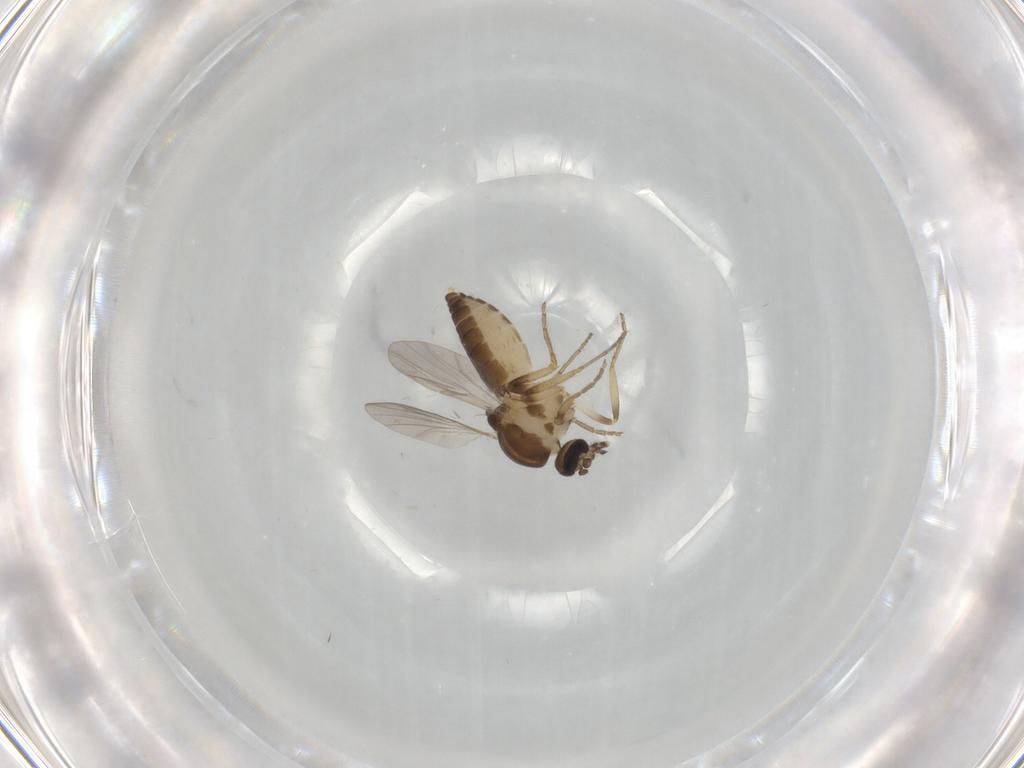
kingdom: Animalia
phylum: Arthropoda
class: Insecta
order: Diptera
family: Ceratopogonidae
